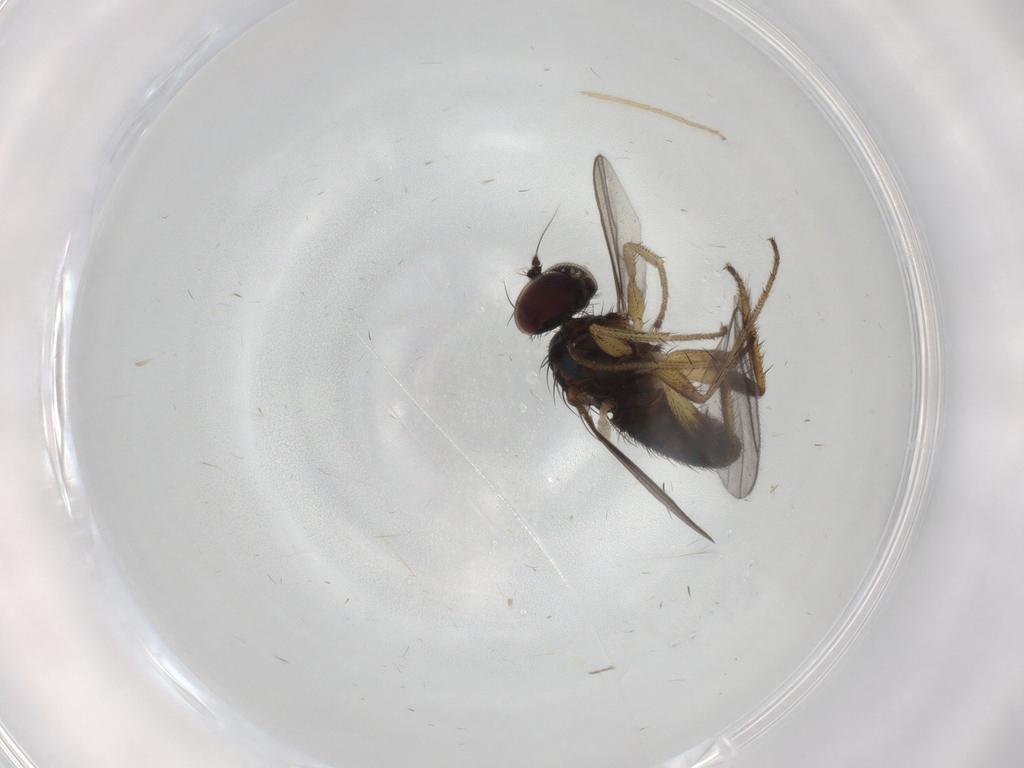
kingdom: Animalia
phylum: Arthropoda
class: Insecta
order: Diptera
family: Dolichopodidae
